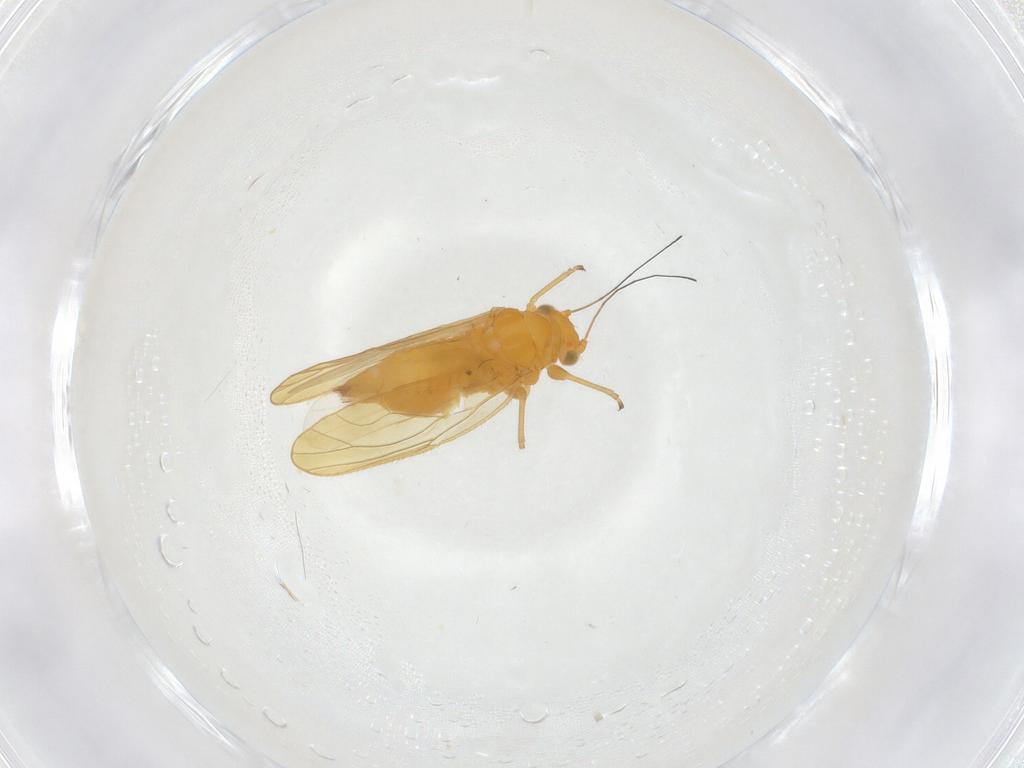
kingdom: Animalia
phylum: Arthropoda
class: Insecta
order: Hemiptera
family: Psyllidae
